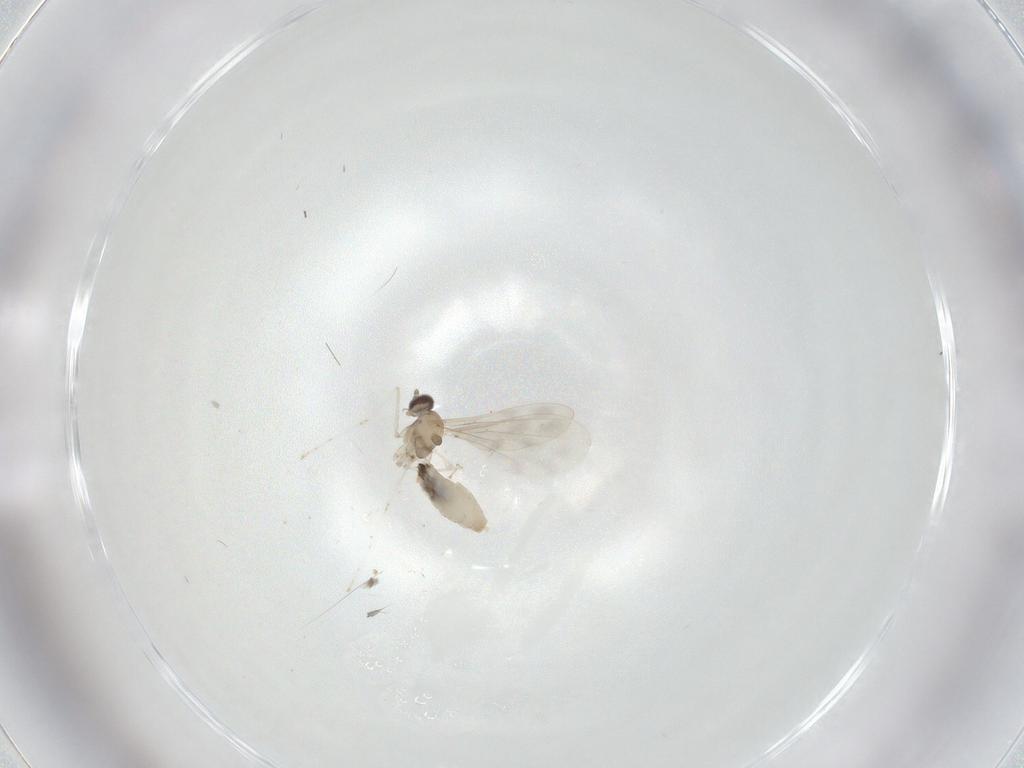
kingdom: Animalia
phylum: Arthropoda
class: Insecta
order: Diptera
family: Cecidomyiidae
